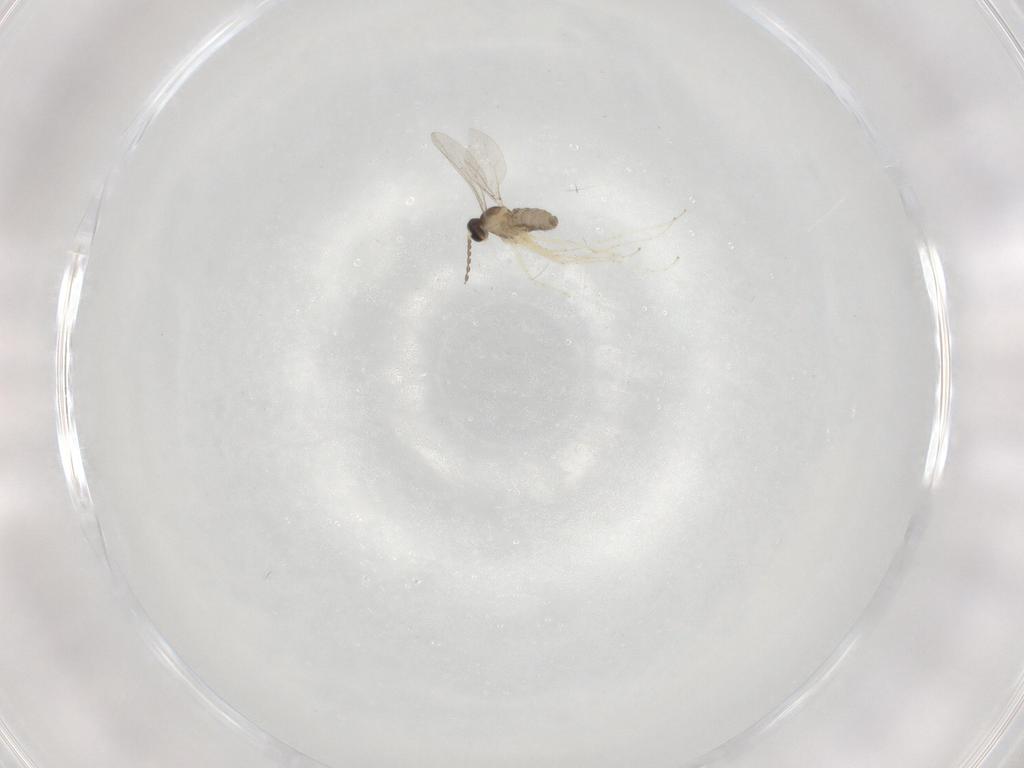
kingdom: Animalia
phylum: Arthropoda
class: Insecta
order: Diptera
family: Cecidomyiidae
